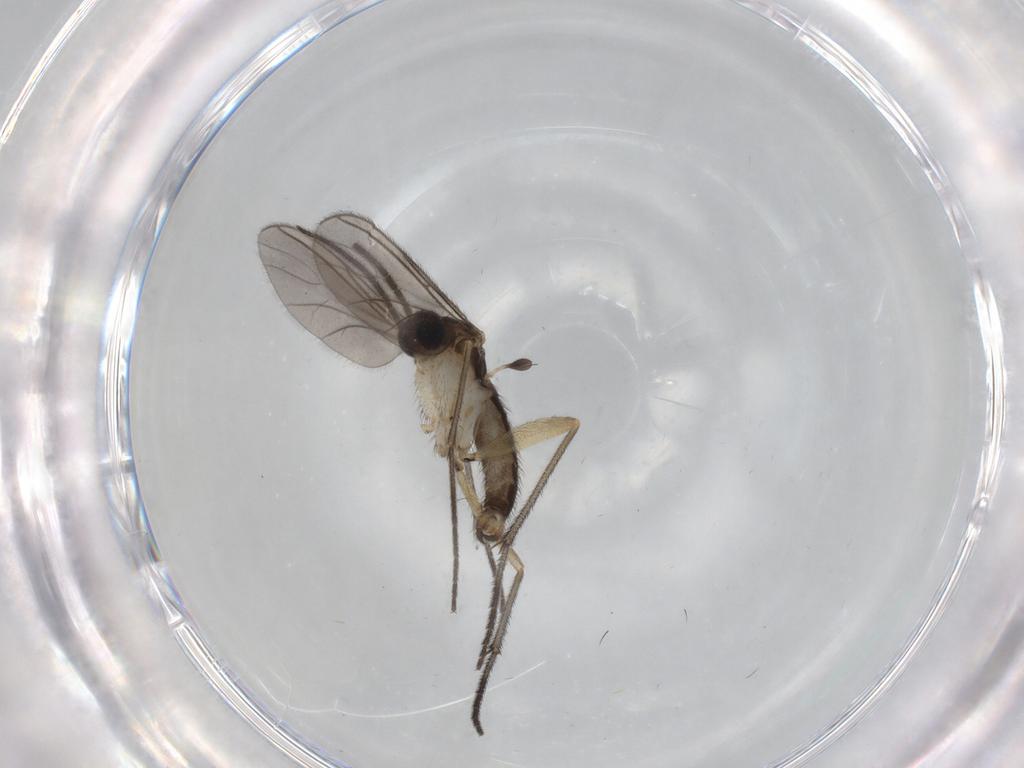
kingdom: Animalia
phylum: Arthropoda
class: Insecta
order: Diptera
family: Sciaridae
